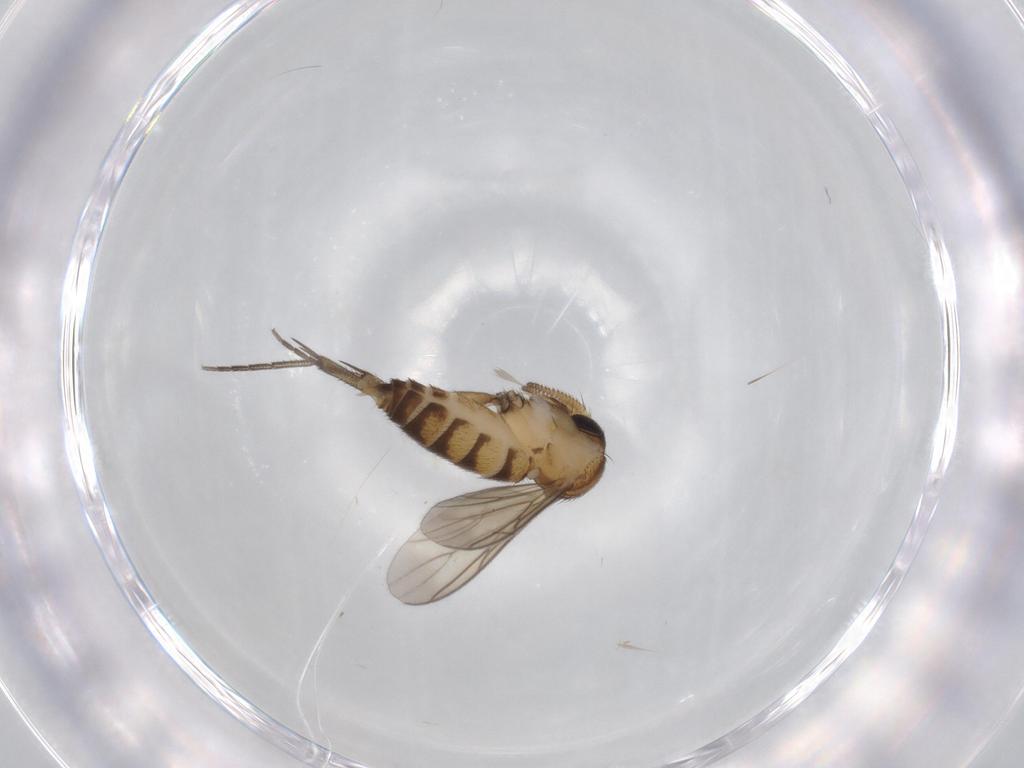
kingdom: Animalia
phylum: Arthropoda
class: Insecta
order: Diptera
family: Mycetophilidae
